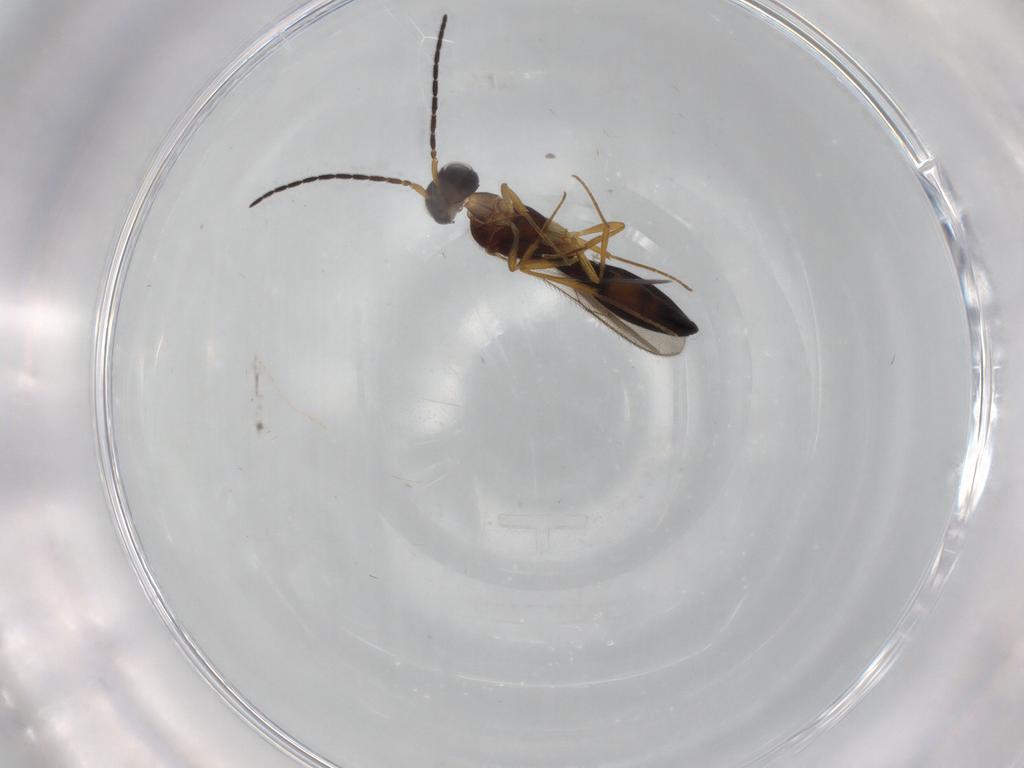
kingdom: Animalia
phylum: Arthropoda
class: Insecta
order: Hymenoptera
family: Scelionidae
